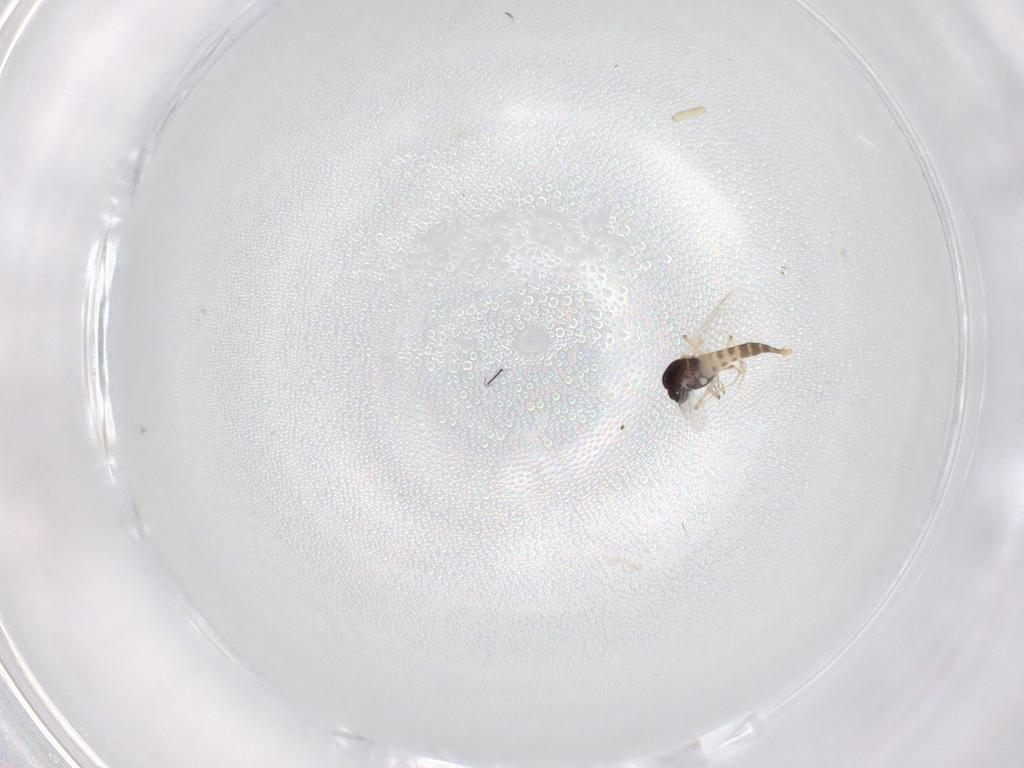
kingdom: Animalia
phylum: Arthropoda
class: Insecta
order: Diptera
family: Chironomidae
